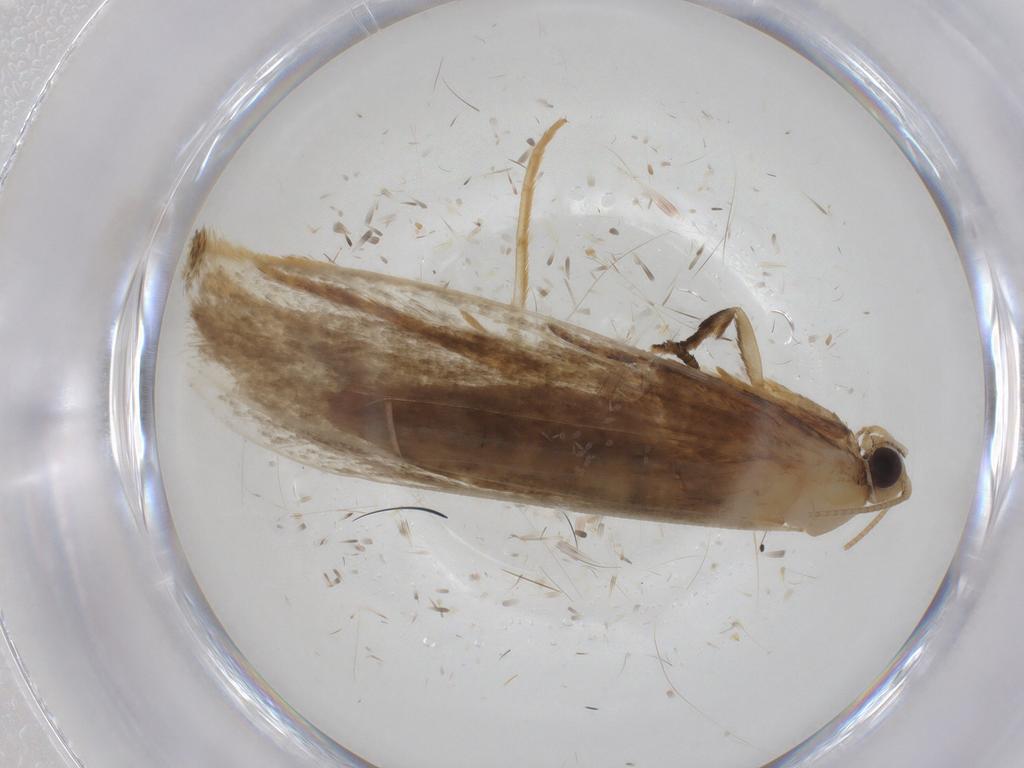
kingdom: Animalia
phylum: Arthropoda
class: Insecta
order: Lepidoptera
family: Tineidae
